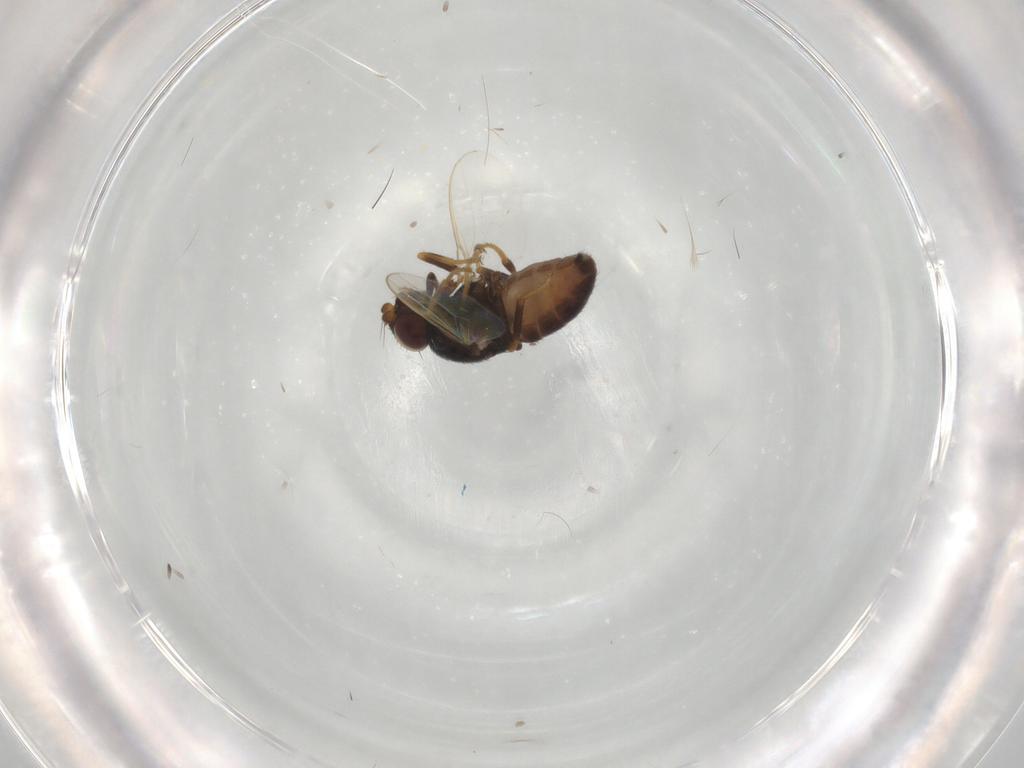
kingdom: Animalia
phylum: Arthropoda
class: Insecta
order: Diptera
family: Chloropidae
